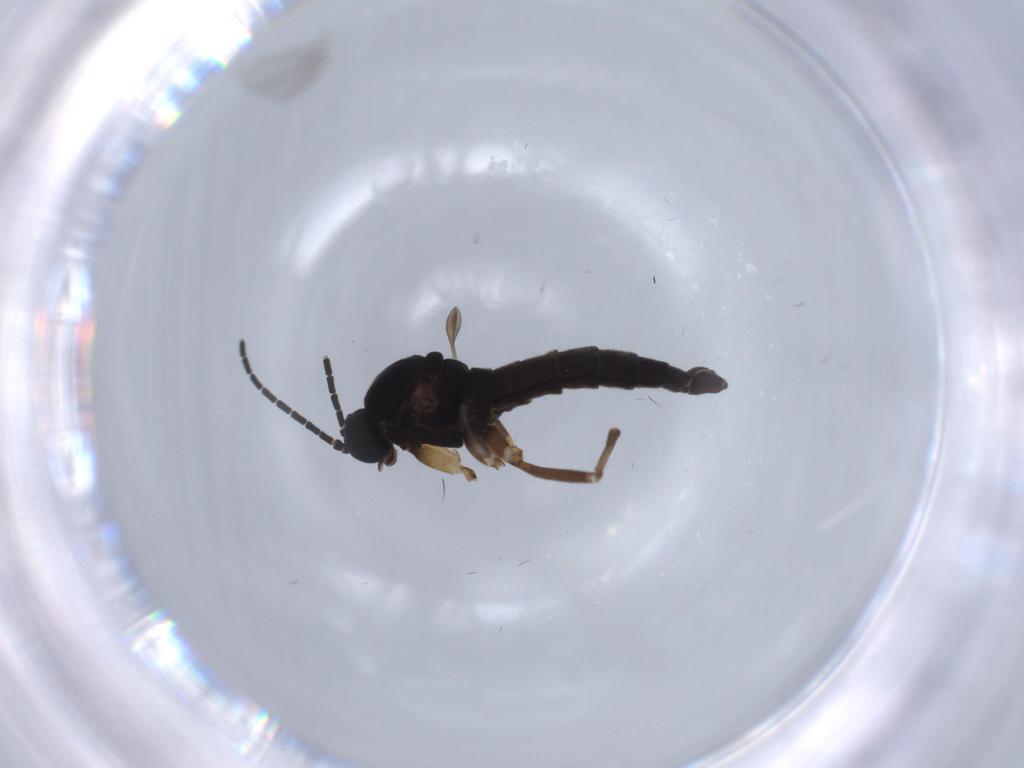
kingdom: Animalia
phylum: Arthropoda
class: Insecta
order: Diptera
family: Sciaridae
